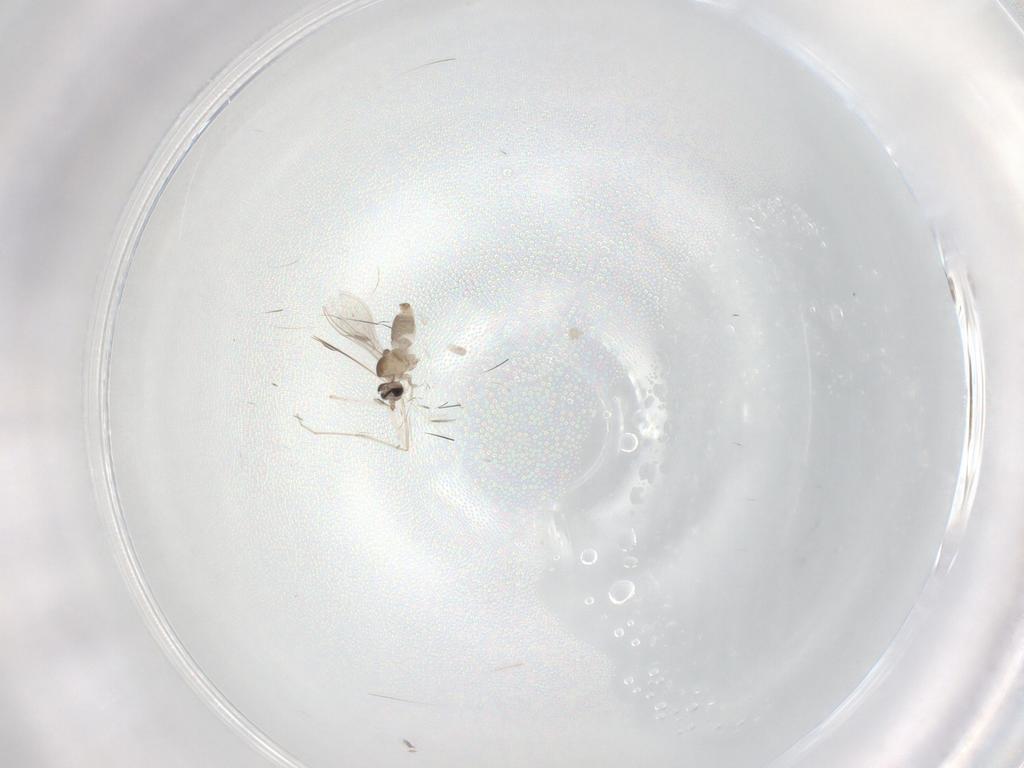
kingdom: Animalia
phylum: Arthropoda
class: Insecta
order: Diptera
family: Cecidomyiidae
